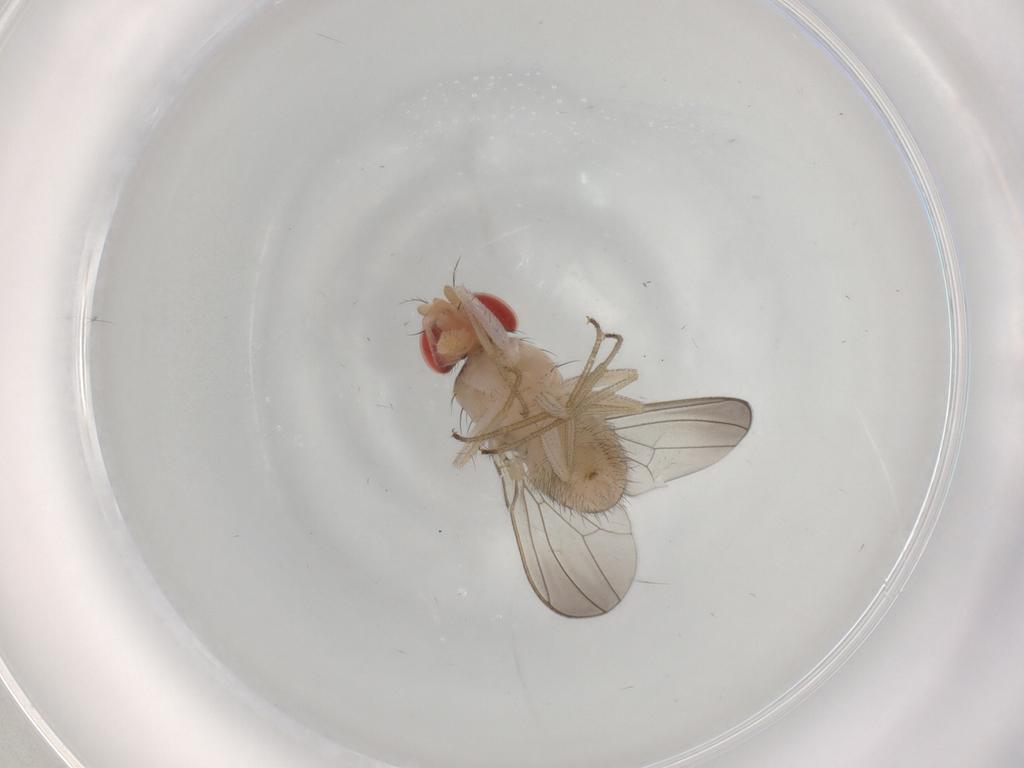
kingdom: Animalia
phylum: Arthropoda
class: Insecta
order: Diptera
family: Drosophilidae
